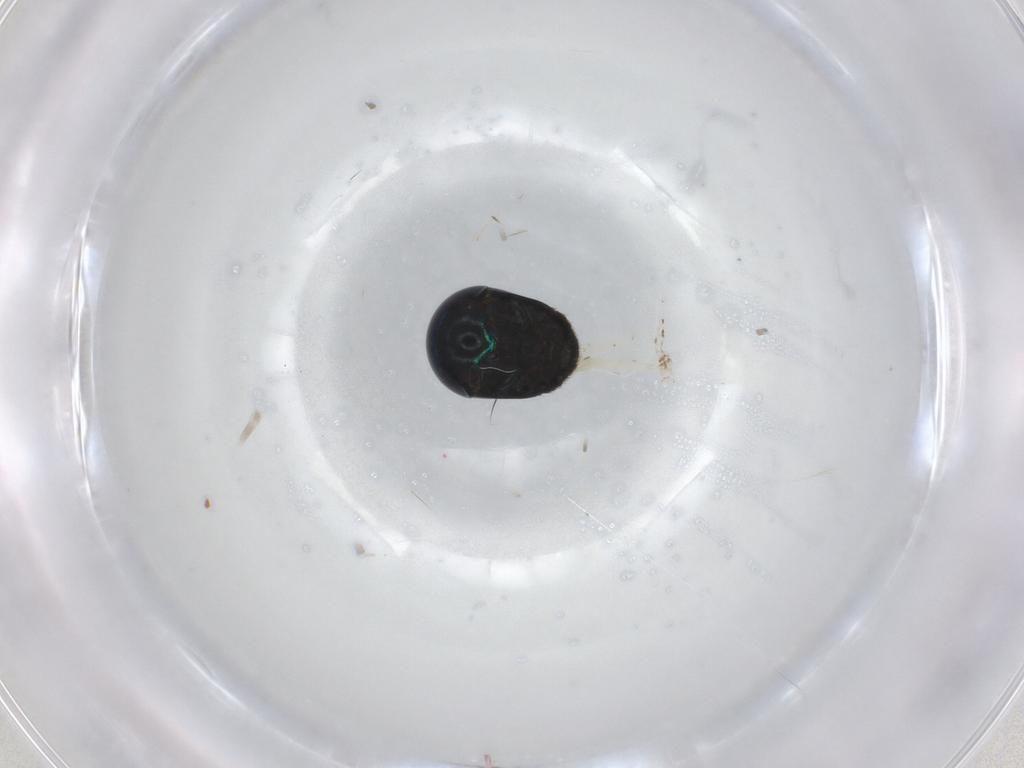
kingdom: Animalia
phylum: Arthropoda
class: Insecta
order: Coleoptera
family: Cybocephalidae
